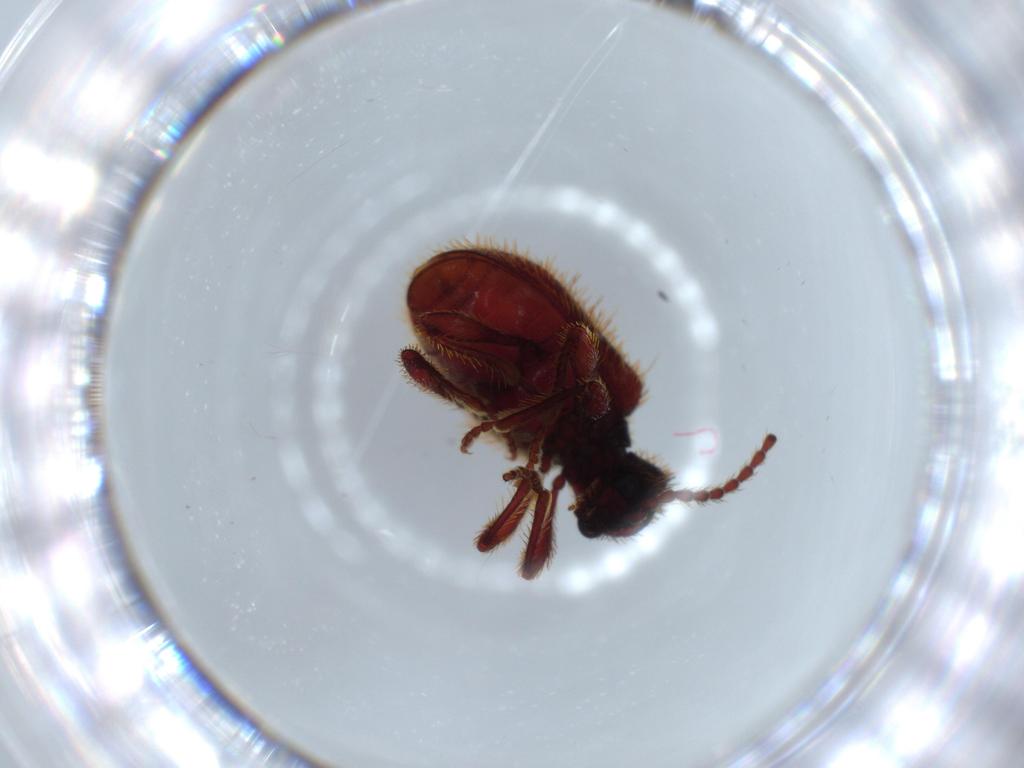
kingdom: Animalia
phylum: Arthropoda
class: Insecta
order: Coleoptera
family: Ptinidae
